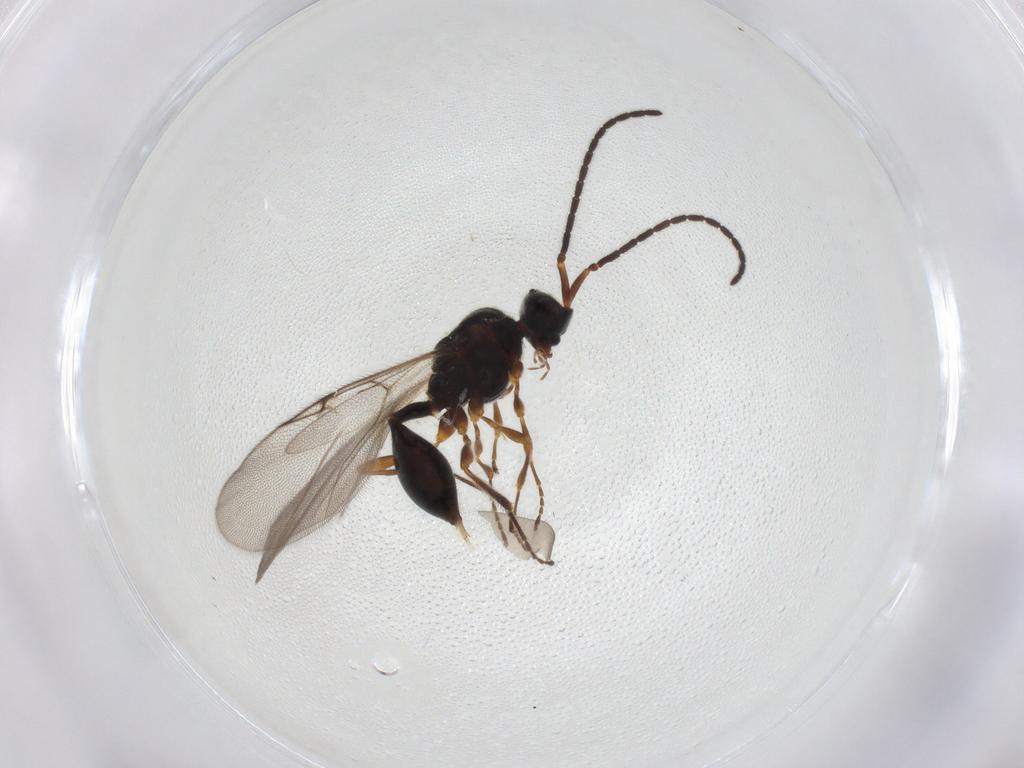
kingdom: Animalia
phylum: Arthropoda
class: Insecta
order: Hymenoptera
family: Diapriidae
